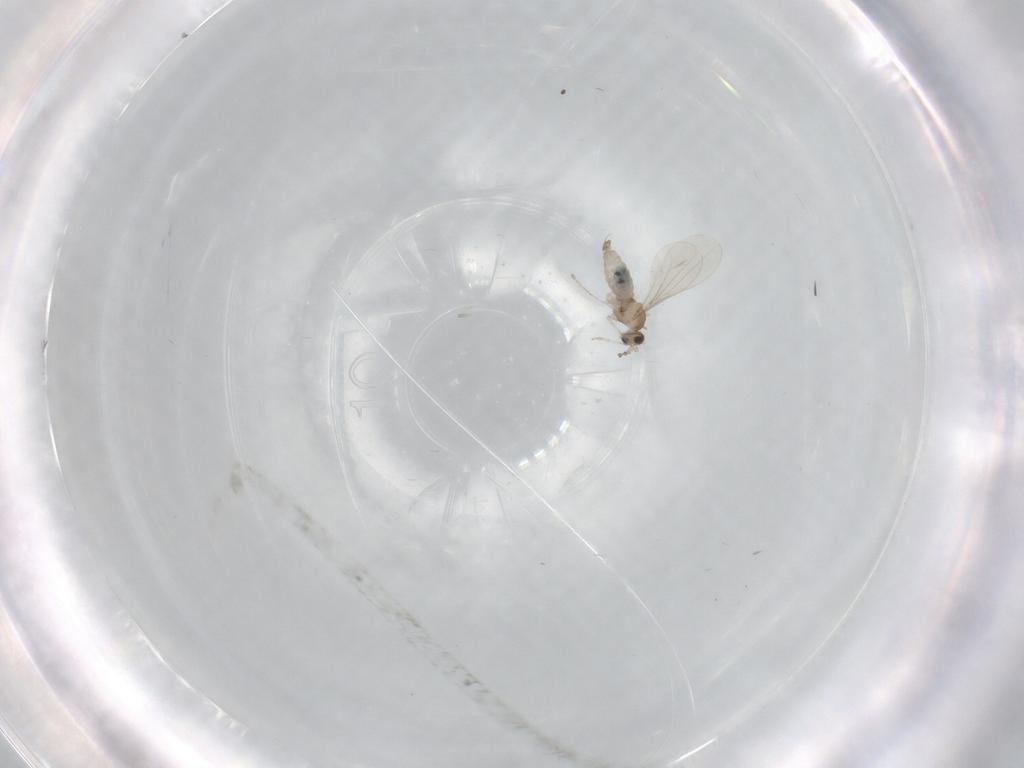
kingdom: Animalia
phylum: Arthropoda
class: Insecta
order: Diptera
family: Cecidomyiidae
